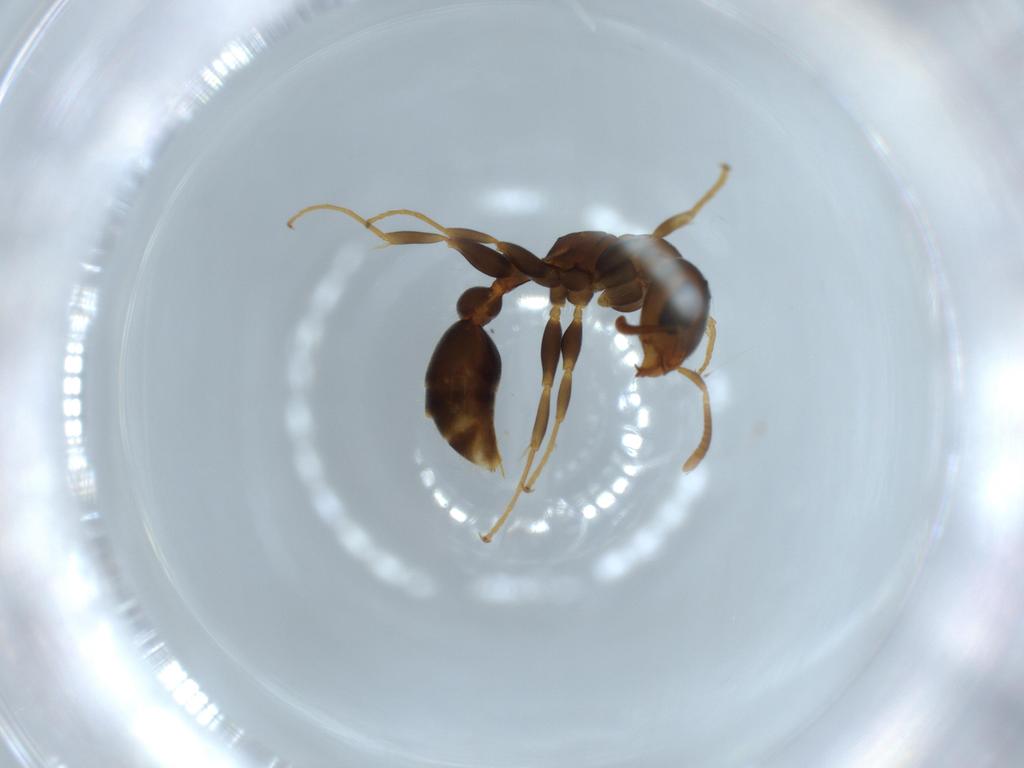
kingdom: Animalia
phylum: Arthropoda
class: Insecta
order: Hymenoptera
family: Formicidae
